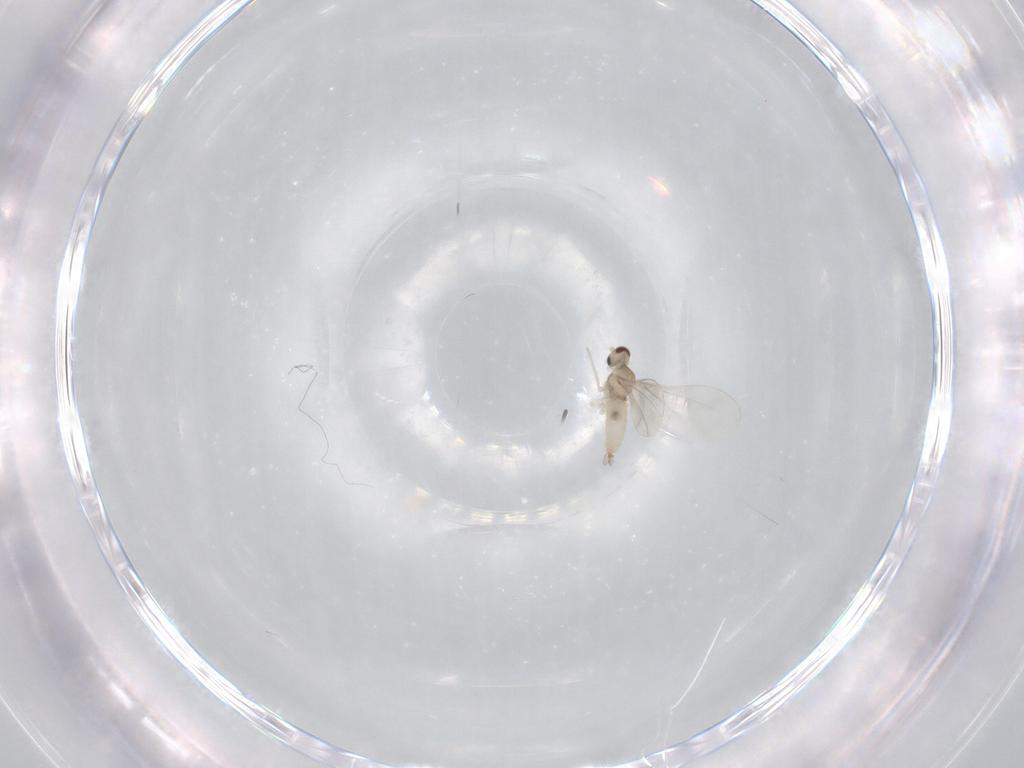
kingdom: Animalia
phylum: Arthropoda
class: Insecta
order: Diptera
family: Cecidomyiidae
